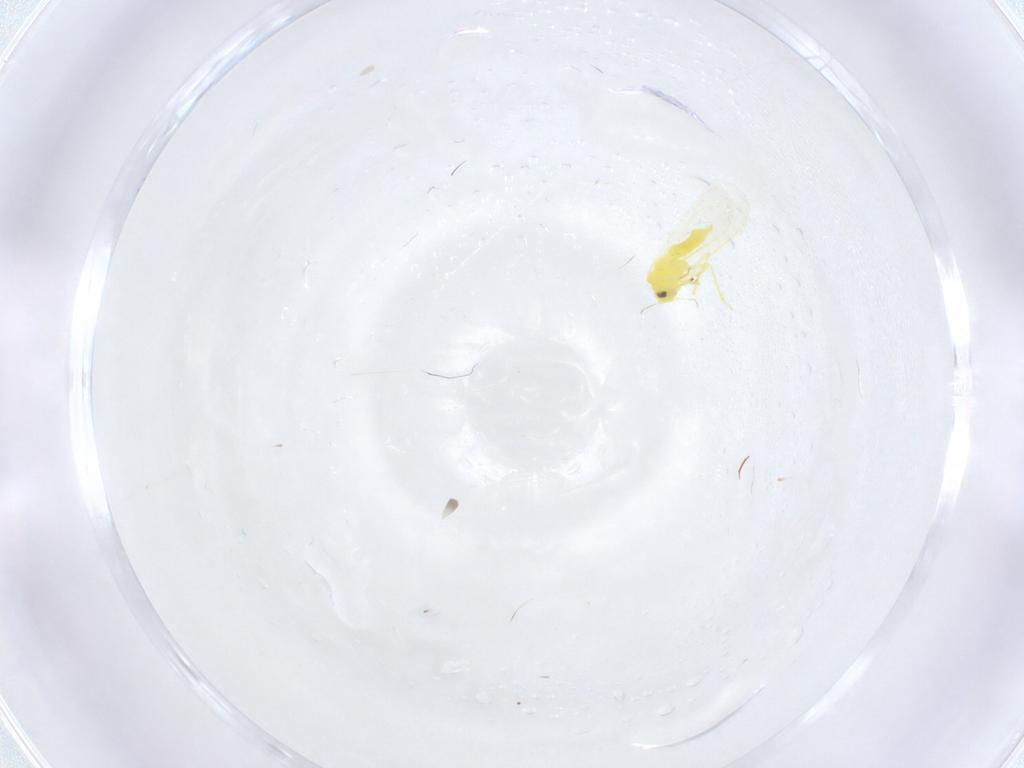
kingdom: Animalia
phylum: Arthropoda
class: Insecta
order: Hemiptera
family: Aleyrodidae
